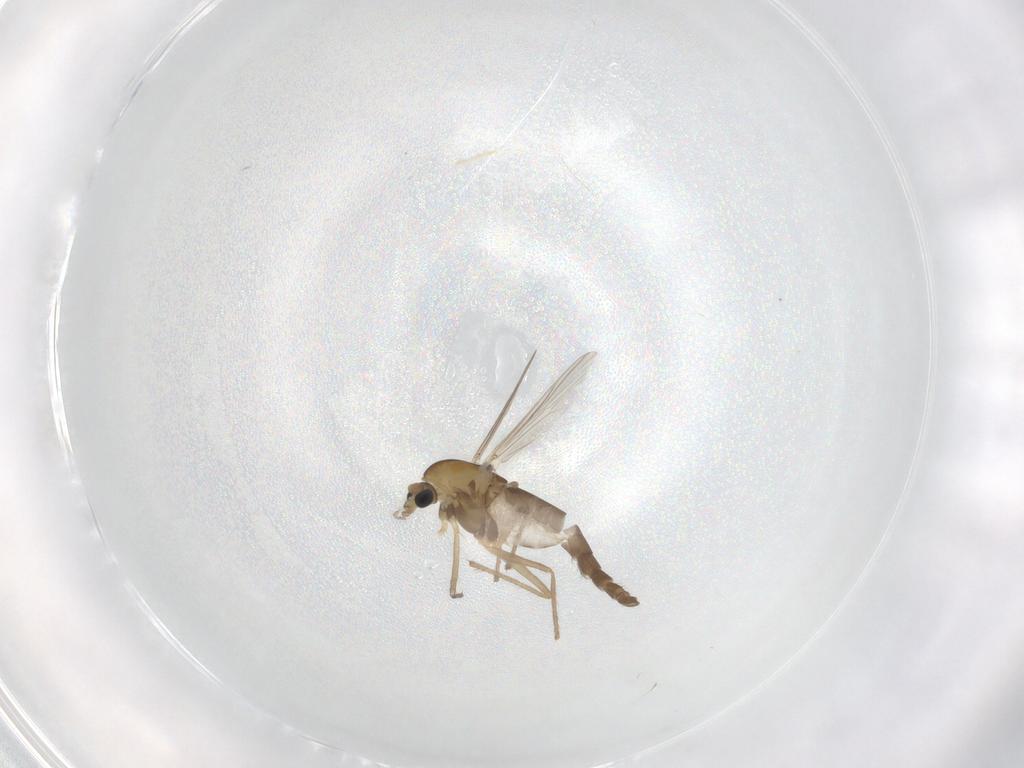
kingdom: Animalia
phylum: Arthropoda
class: Insecta
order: Diptera
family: Chironomidae
